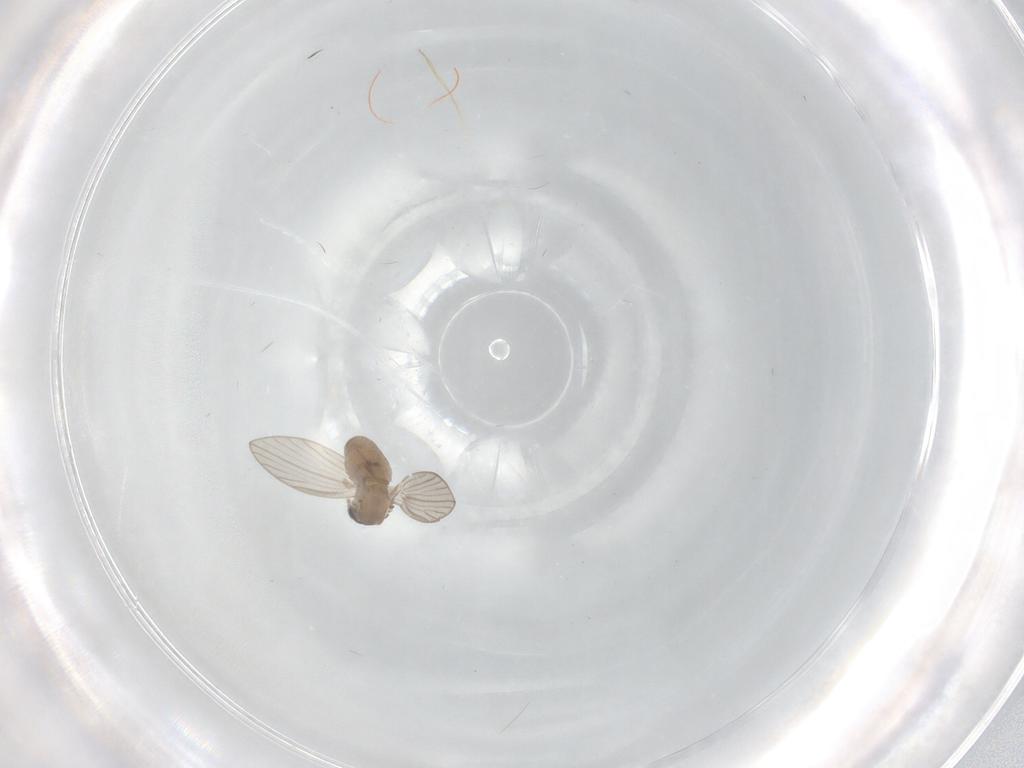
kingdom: Animalia
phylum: Arthropoda
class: Insecta
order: Diptera
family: Psychodidae
